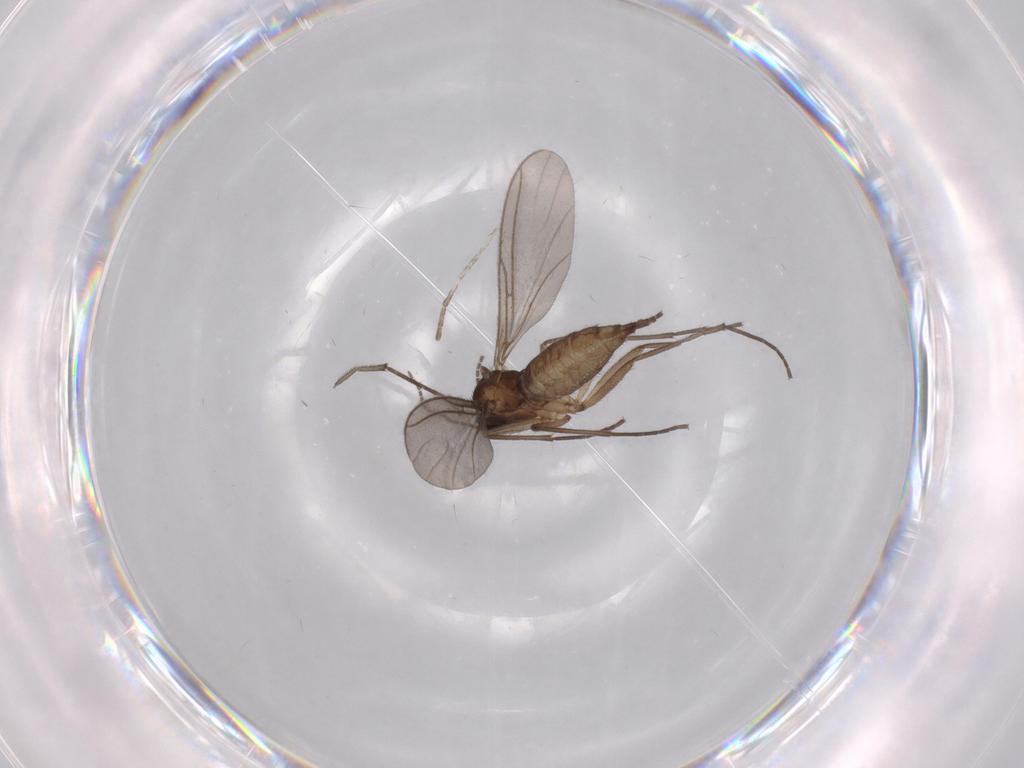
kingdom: Animalia
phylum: Arthropoda
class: Insecta
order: Diptera
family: Sciaridae
